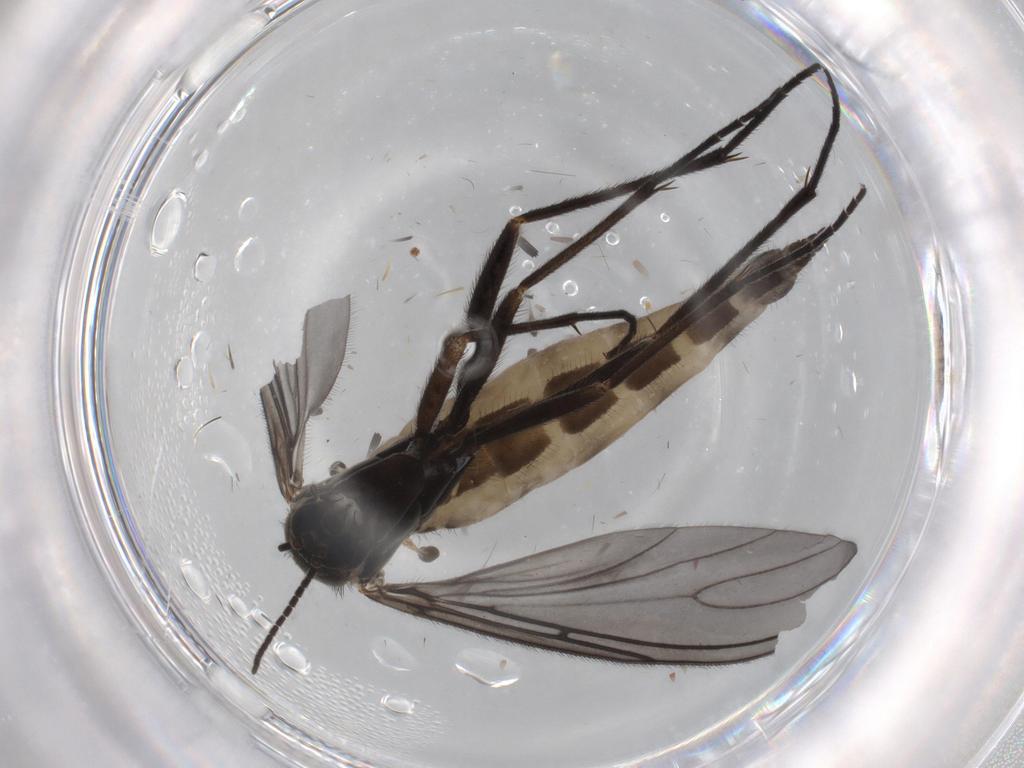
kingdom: Animalia
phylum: Arthropoda
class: Insecta
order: Diptera
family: Sciaridae
